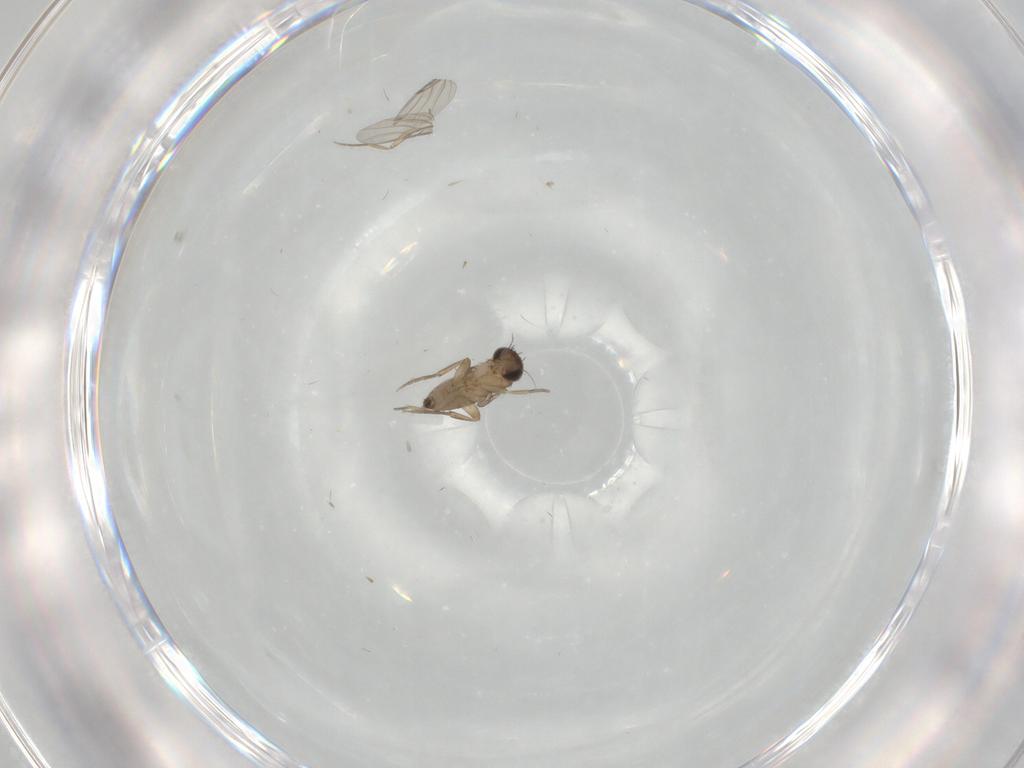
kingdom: Animalia
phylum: Arthropoda
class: Insecta
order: Diptera
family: Phoridae
